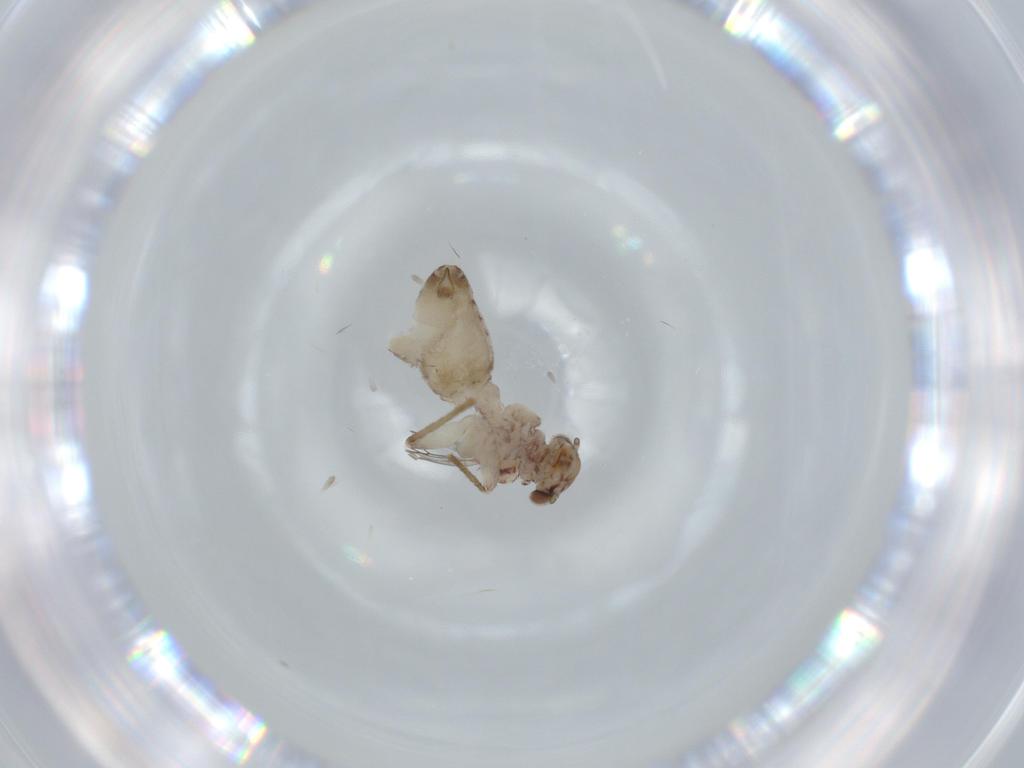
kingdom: Animalia
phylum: Arthropoda
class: Insecta
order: Psocodea
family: Lepidopsocidae
